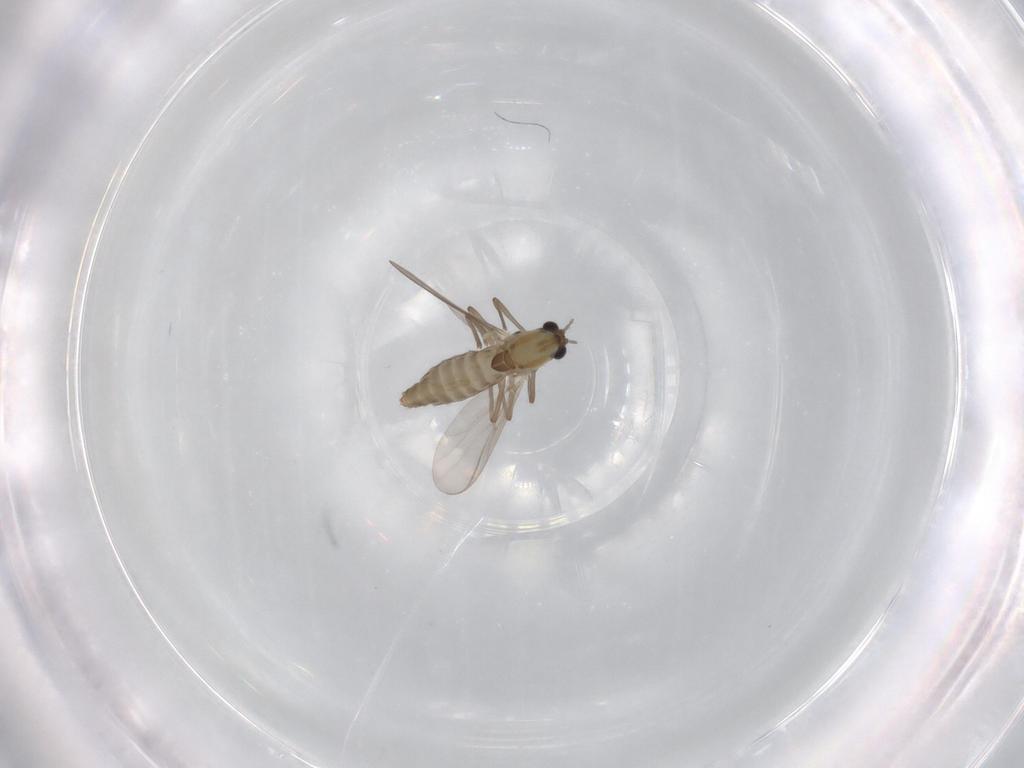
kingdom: Animalia
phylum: Arthropoda
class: Insecta
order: Diptera
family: Chironomidae
